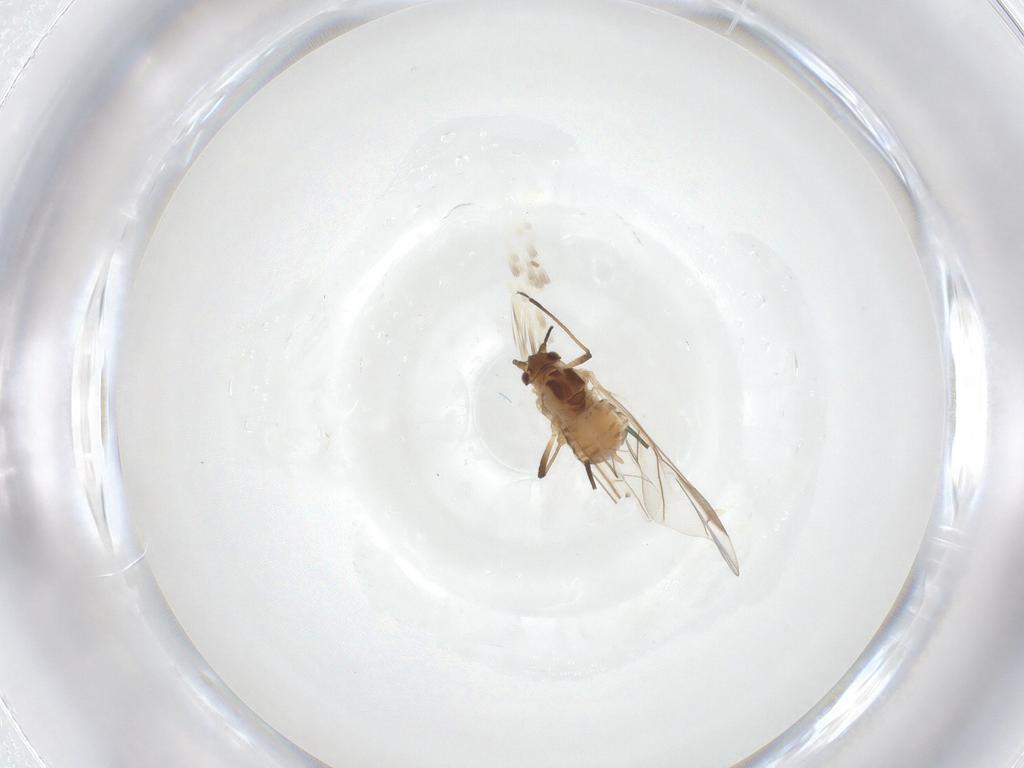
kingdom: Animalia
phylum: Arthropoda
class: Insecta
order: Hemiptera
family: Aphididae
